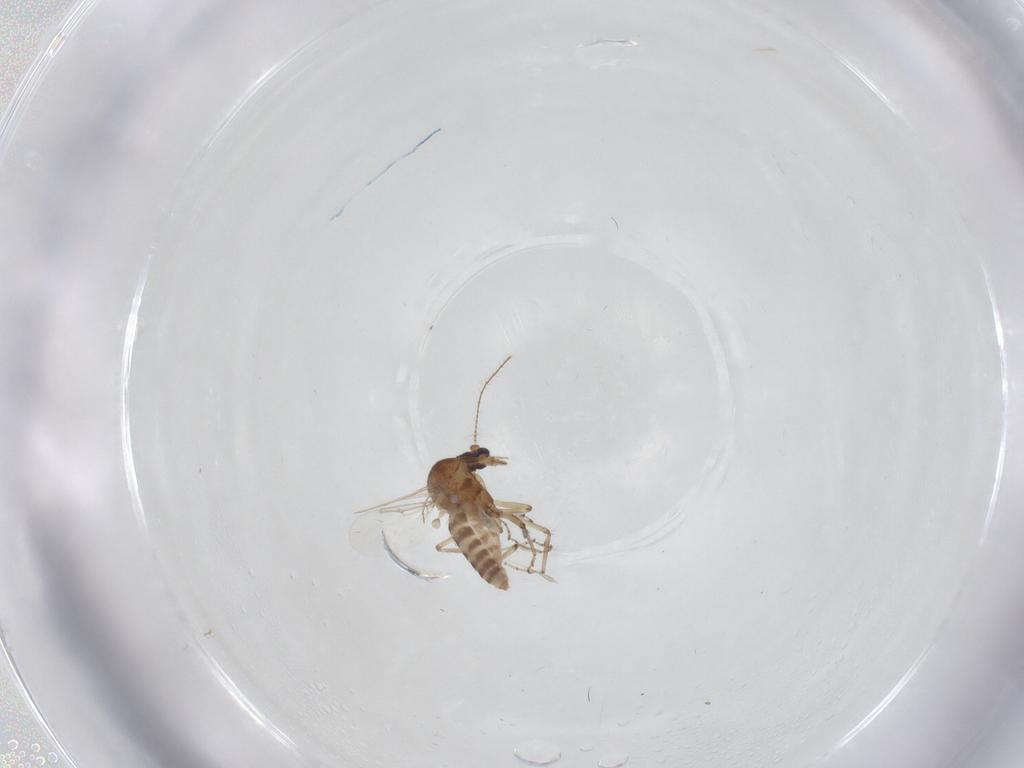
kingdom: Animalia
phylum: Arthropoda
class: Insecta
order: Diptera
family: Ceratopogonidae
